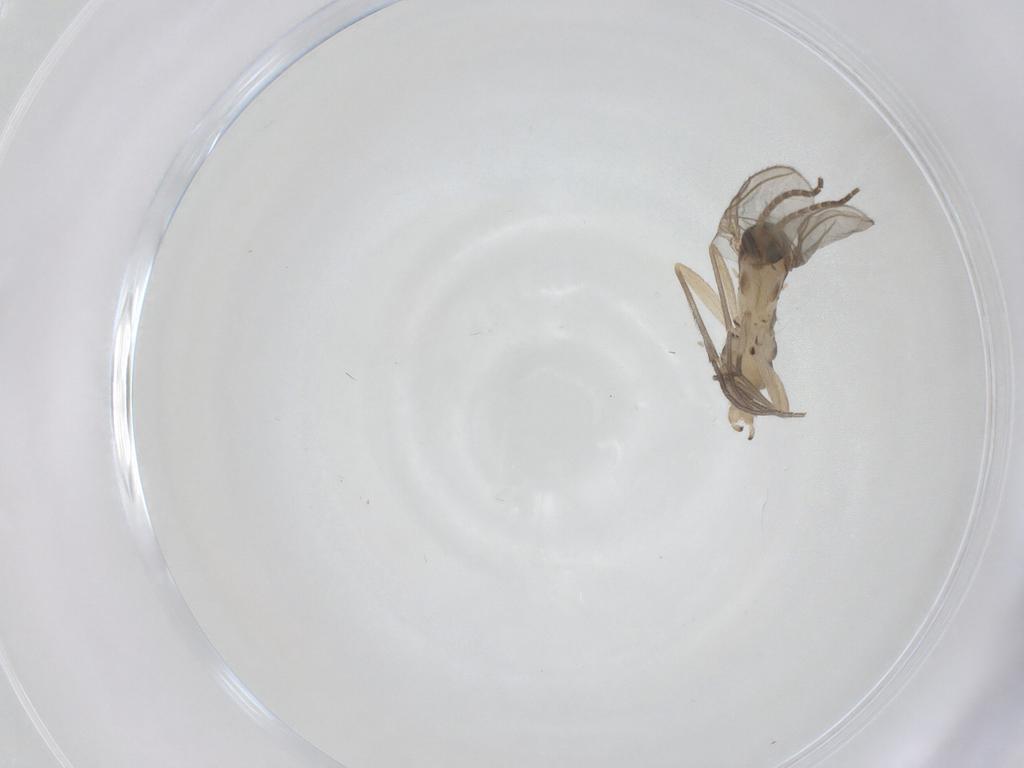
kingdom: Animalia
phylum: Arthropoda
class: Insecta
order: Diptera
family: Sciaridae
